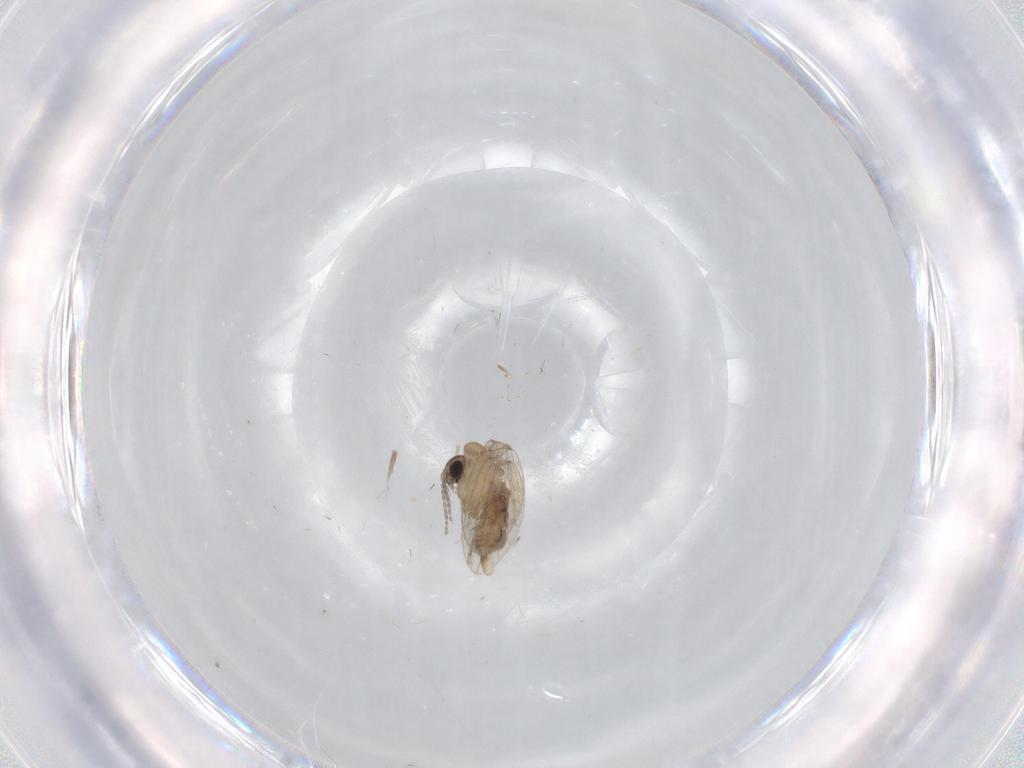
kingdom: Animalia
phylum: Arthropoda
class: Insecta
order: Diptera
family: Psychodidae
